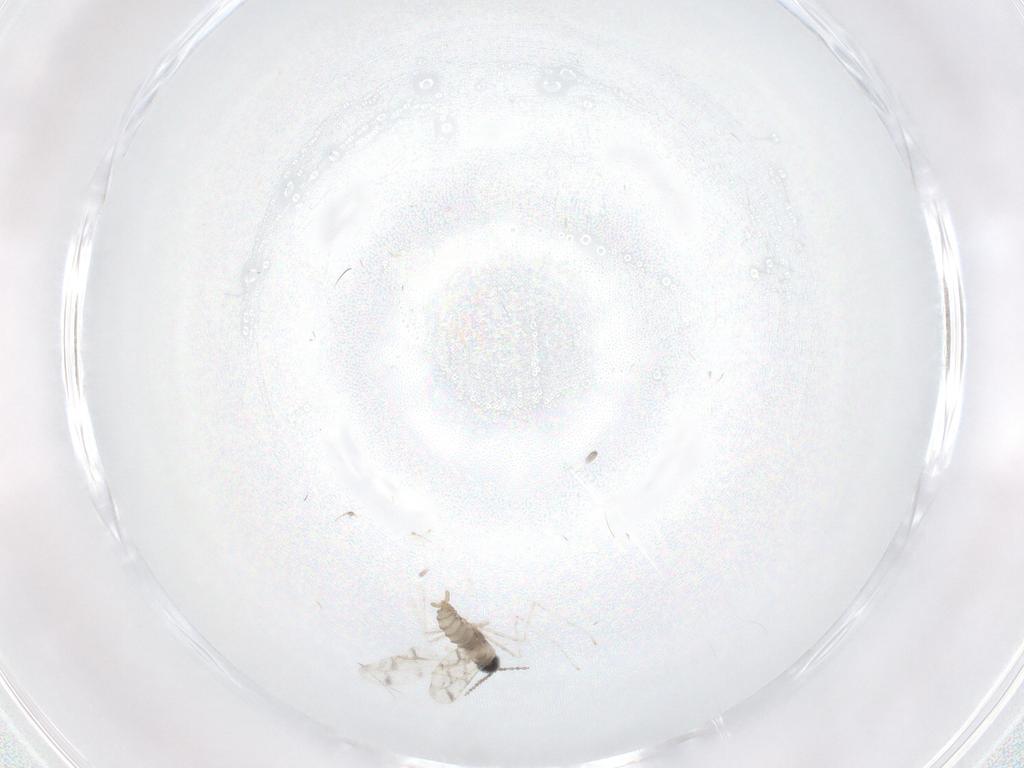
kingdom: Animalia
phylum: Arthropoda
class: Insecta
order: Diptera
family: Cecidomyiidae
